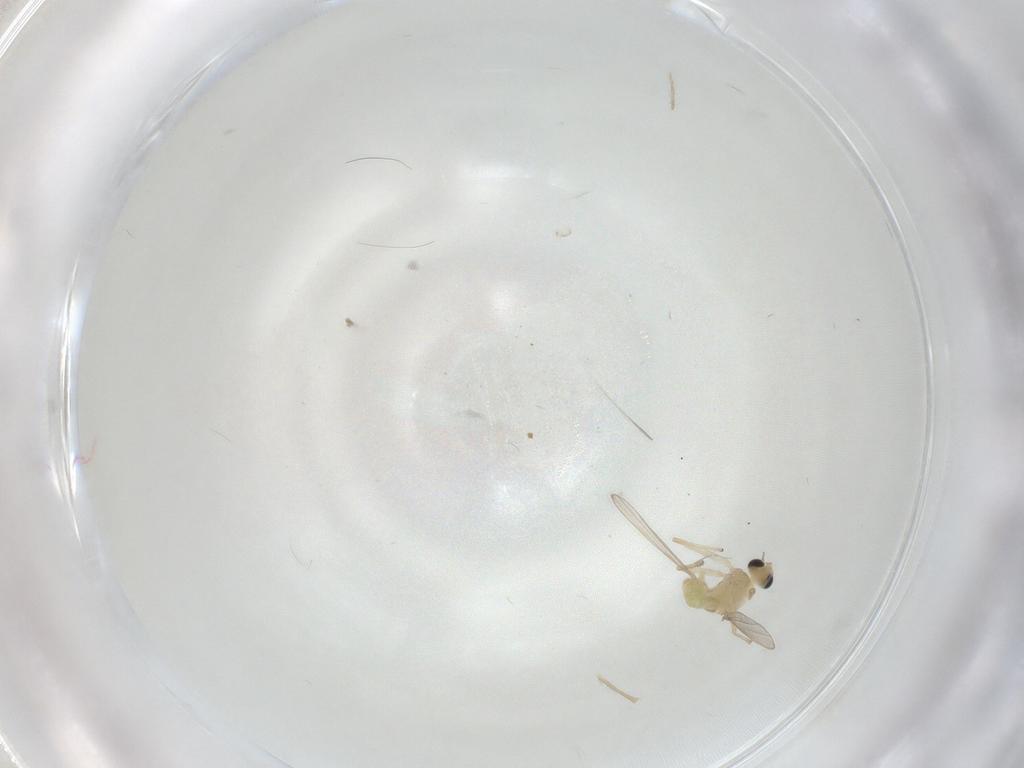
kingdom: Animalia
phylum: Arthropoda
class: Insecta
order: Diptera
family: Chironomidae
